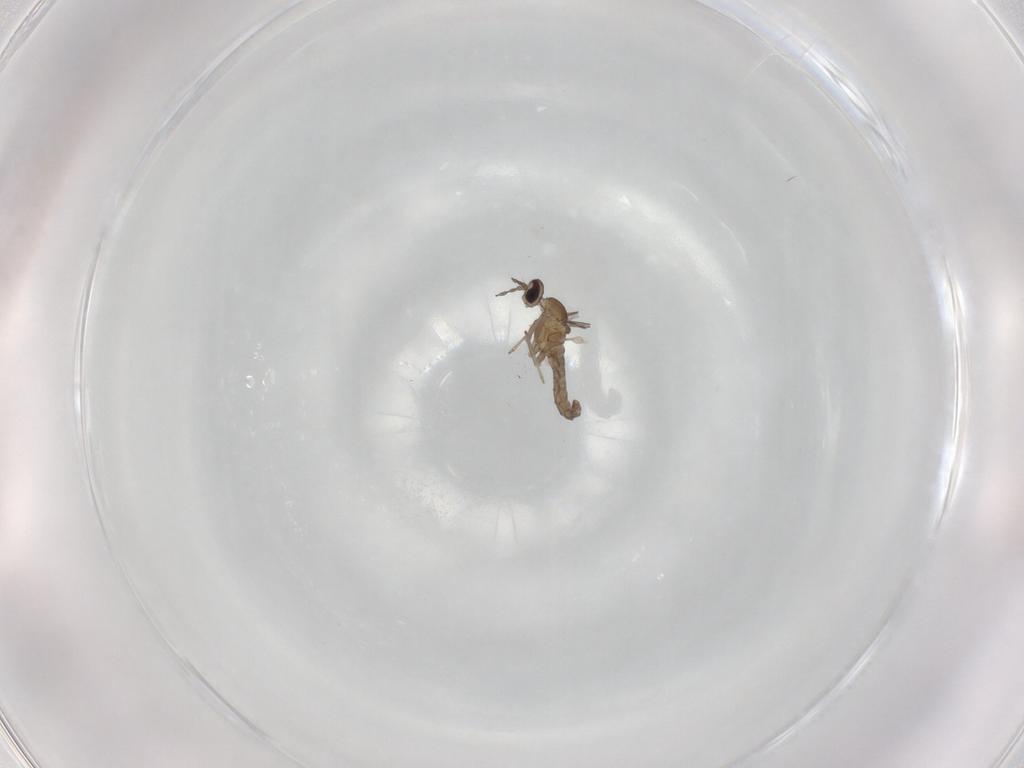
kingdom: Animalia
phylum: Arthropoda
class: Insecta
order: Diptera
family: Cecidomyiidae
